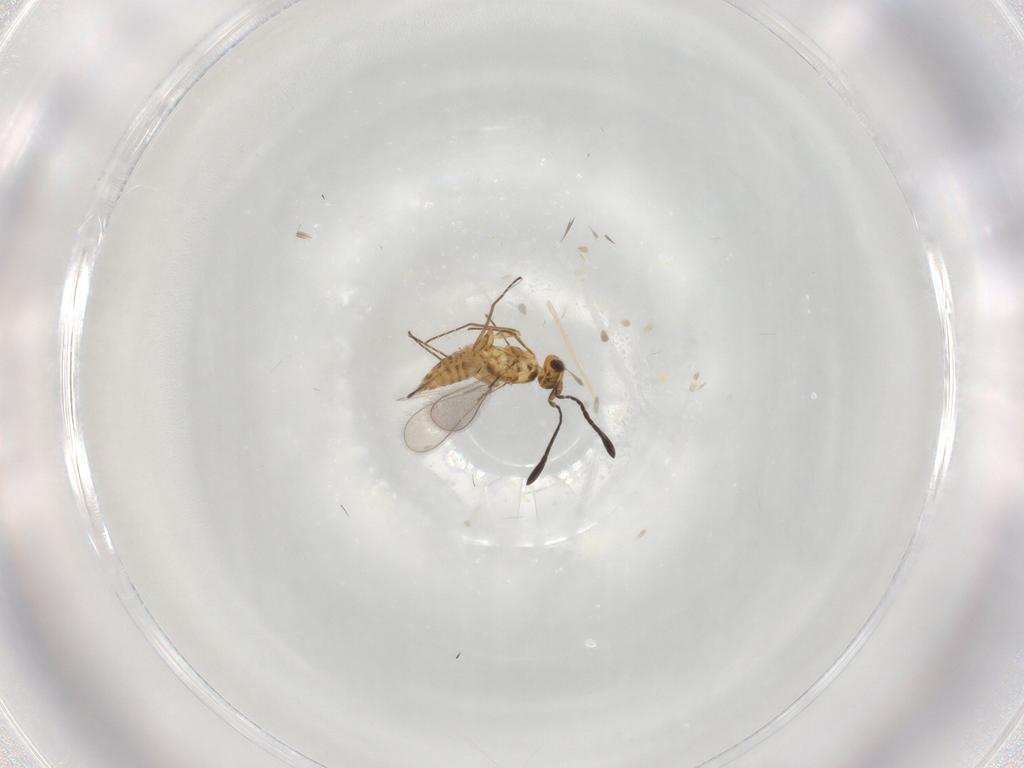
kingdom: Animalia
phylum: Arthropoda
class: Insecta
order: Hymenoptera
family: Mymaridae
